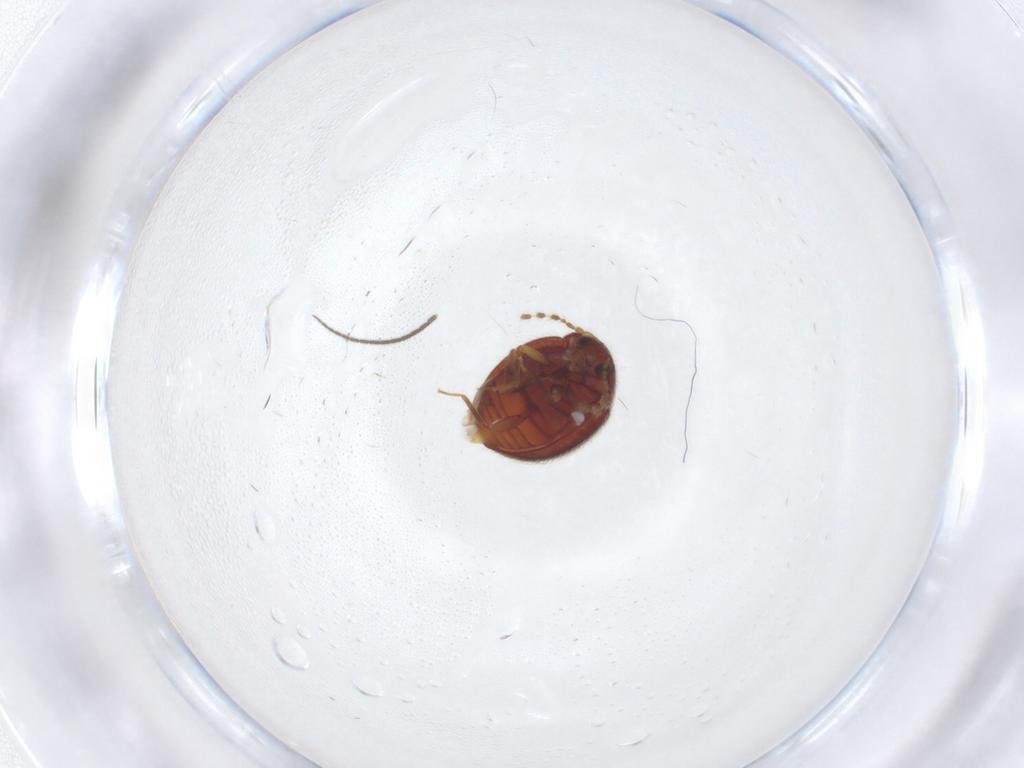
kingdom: Animalia
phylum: Arthropoda
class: Insecta
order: Coleoptera
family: Anamorphidae
